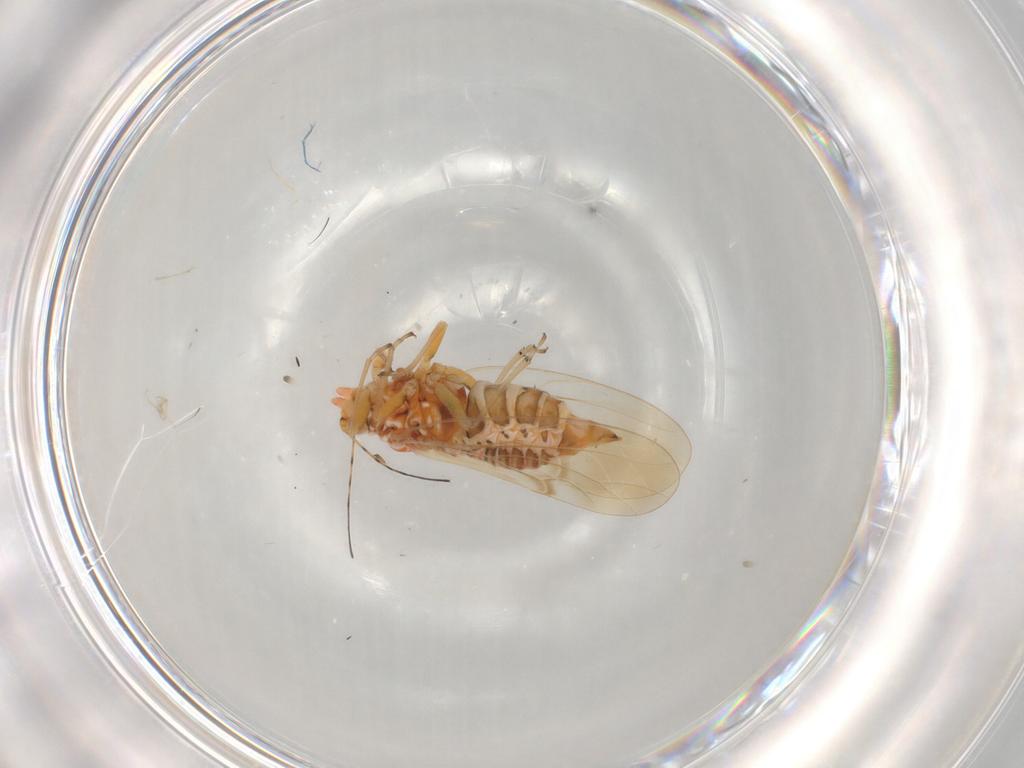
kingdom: Animalia
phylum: Arthropoda
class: Insecta
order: Hemiptera
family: Psyllidae
